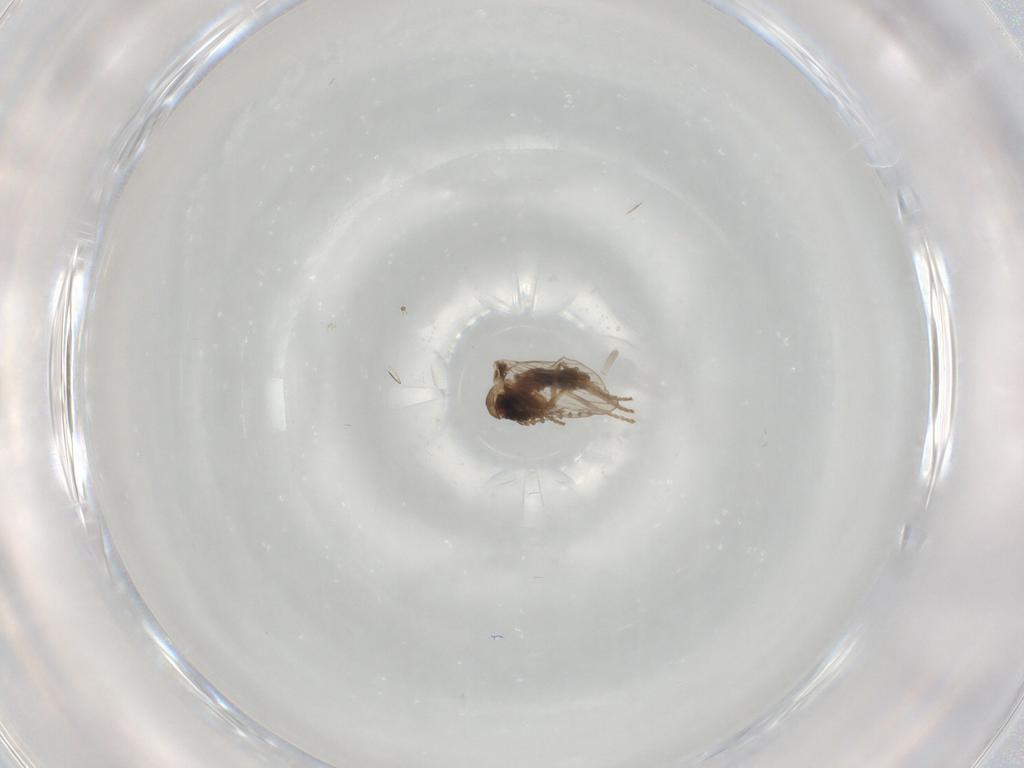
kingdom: Animalia
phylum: Arthropoda
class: Insecta
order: Diptera
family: Chironomidae
